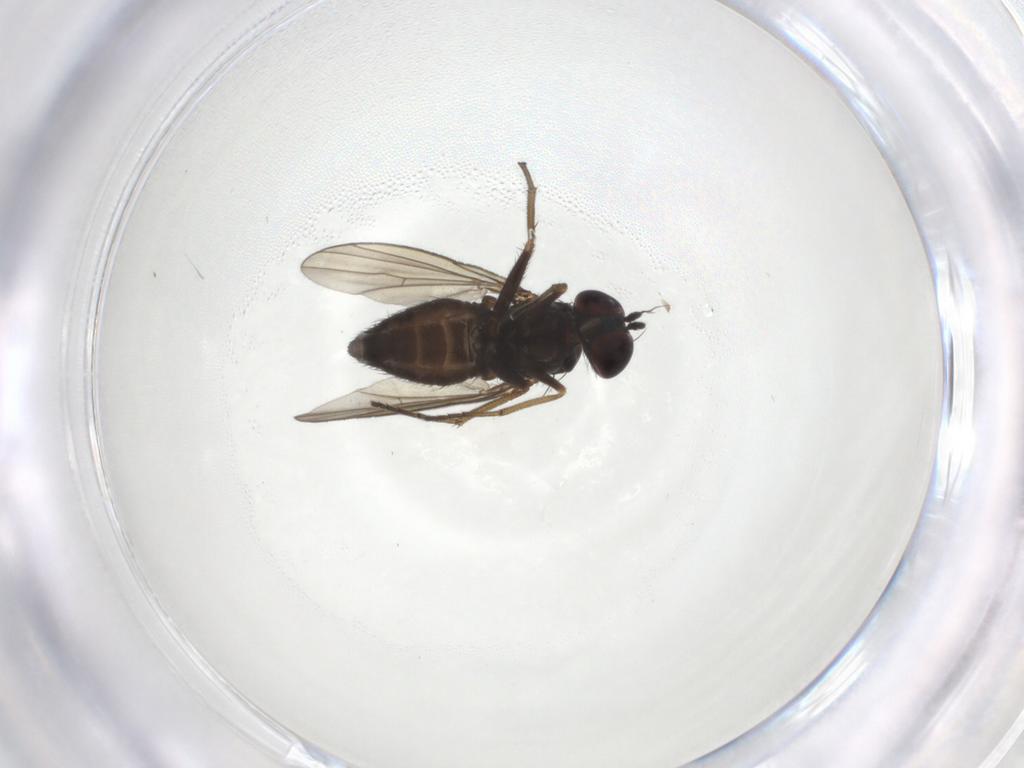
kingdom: Animalia
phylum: Arthropoda
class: Insecta
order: Diptera
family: Dolichopodidae
